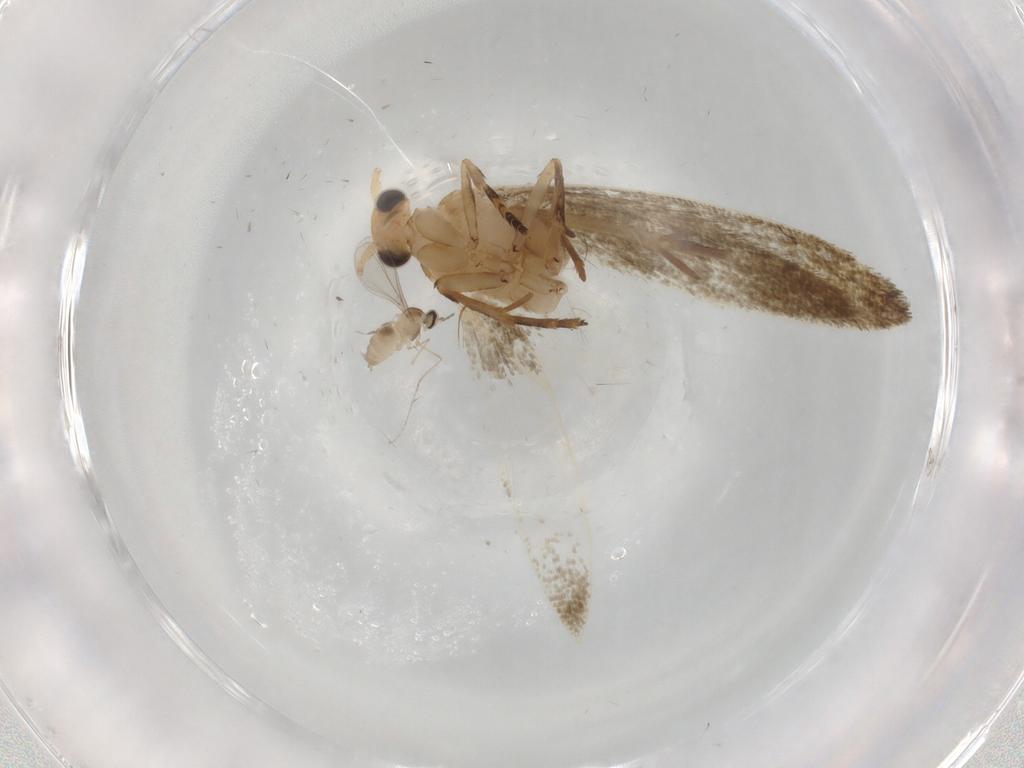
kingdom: Animalia
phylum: Arthropoda
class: Insecta
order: Lepidoptera
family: Tineidae
